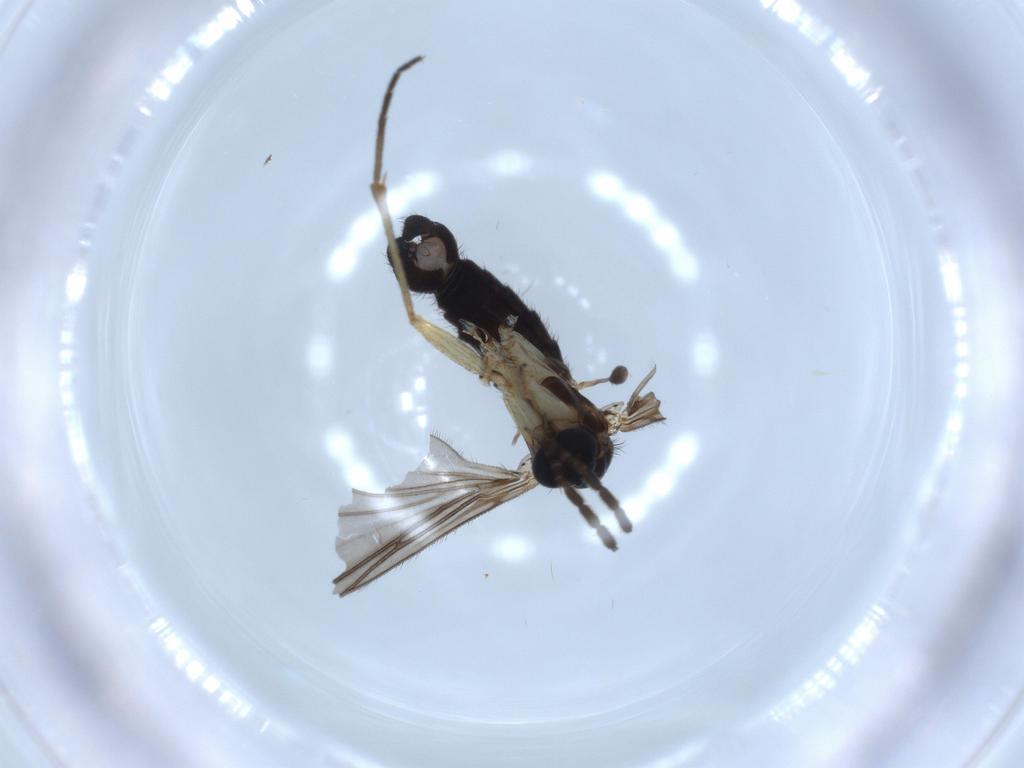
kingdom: Animalia
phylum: Arthropoda
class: Insecta
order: Diptera
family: Sciaridae
